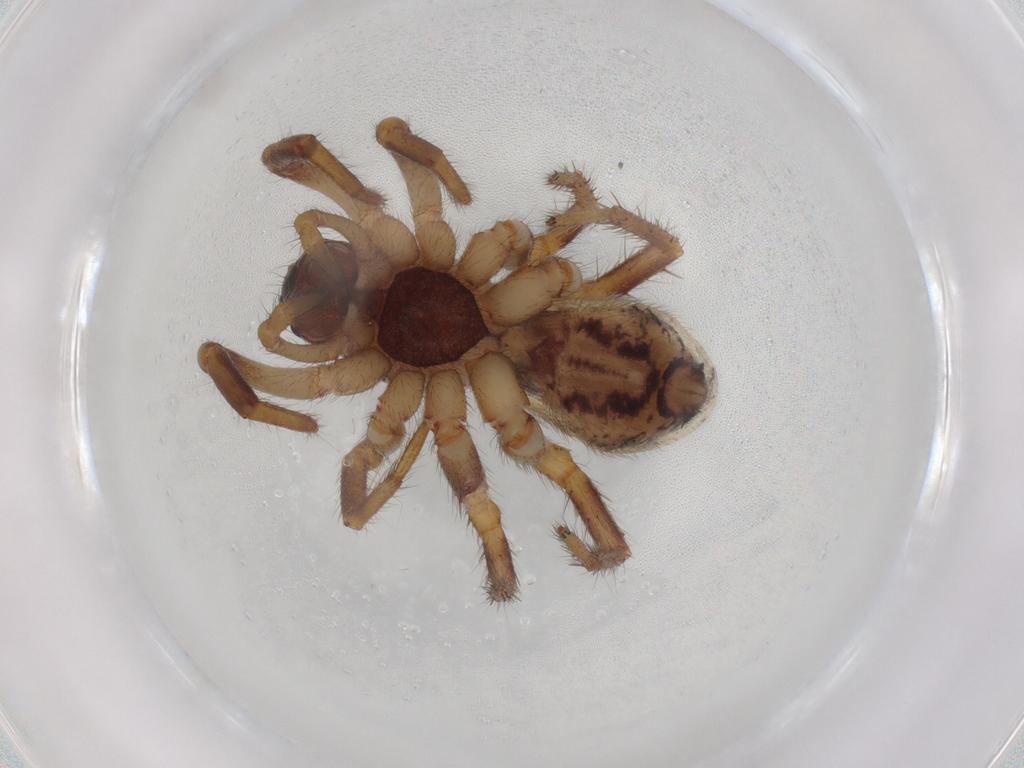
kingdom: Animalia
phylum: Arthropoda
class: Arachnida
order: Araneae
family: Zodariidae
